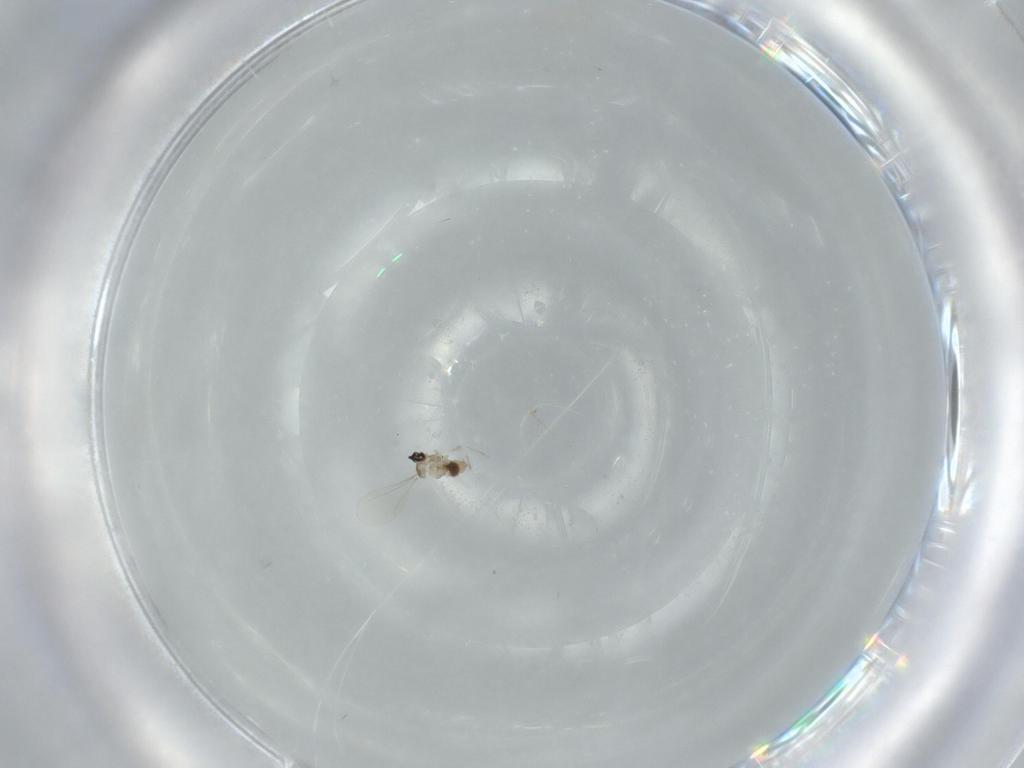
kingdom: Animalia
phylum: Arthropoda
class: Insecta
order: Diptera
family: Cecidomyiidae
